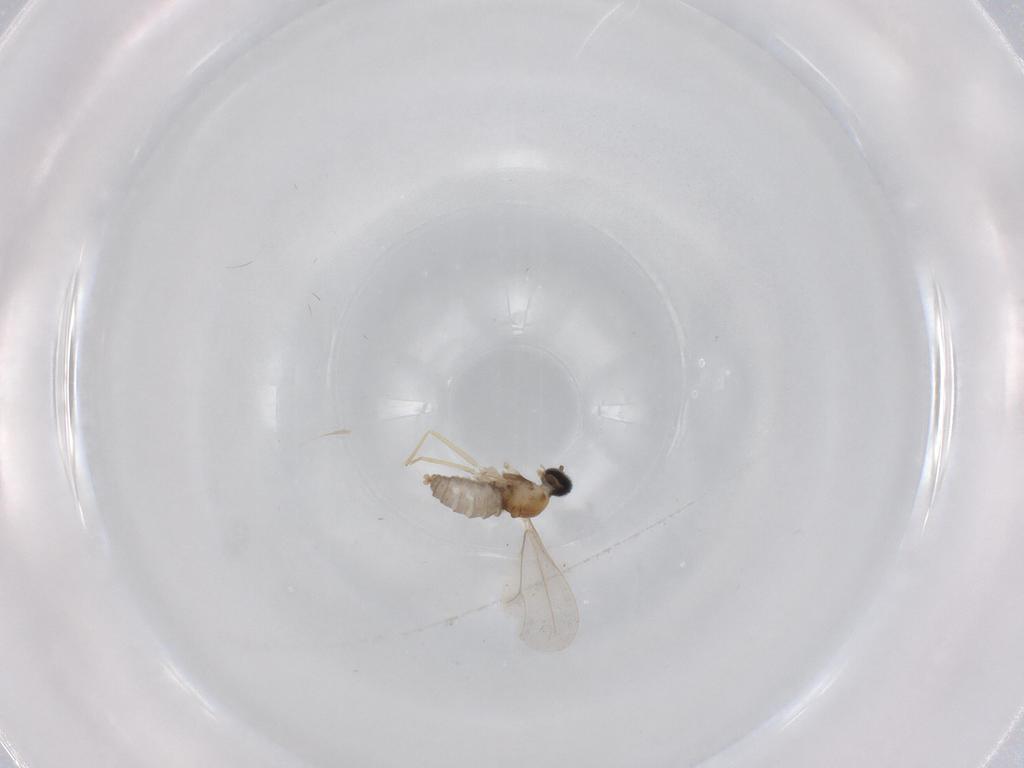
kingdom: Animalia
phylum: Arthropoda
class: Insecta
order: Diptera
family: Cecidomyiidae
